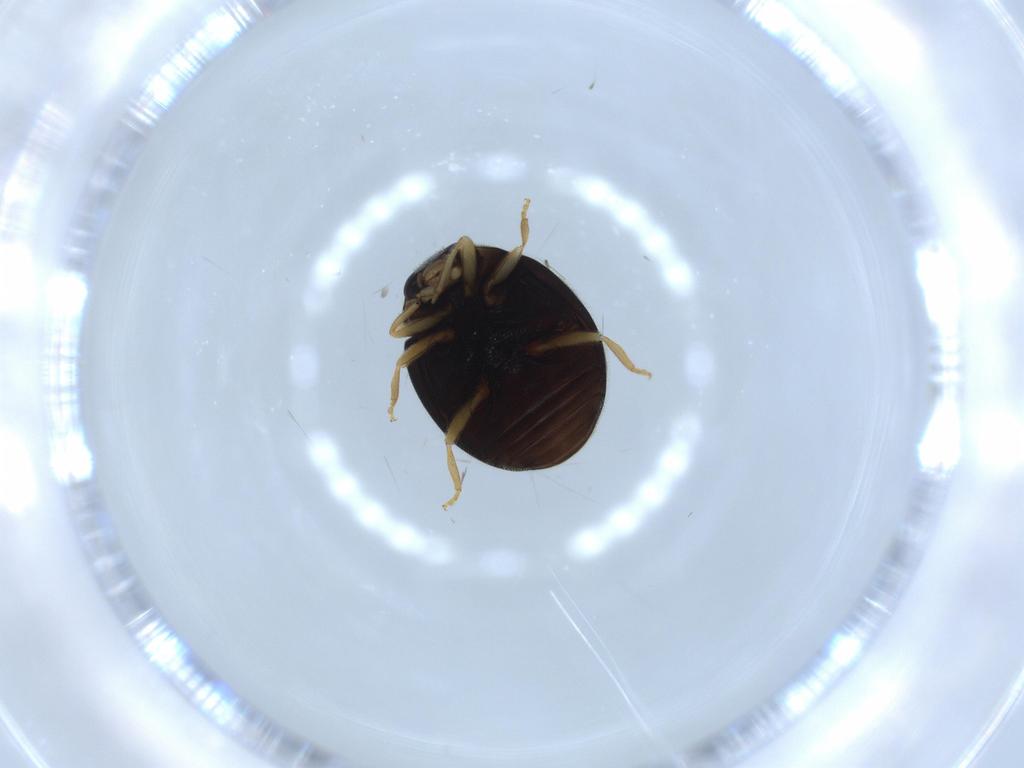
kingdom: Animalia
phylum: Arthropoda
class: Insecta
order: Coleoptera
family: Coccinellidae
